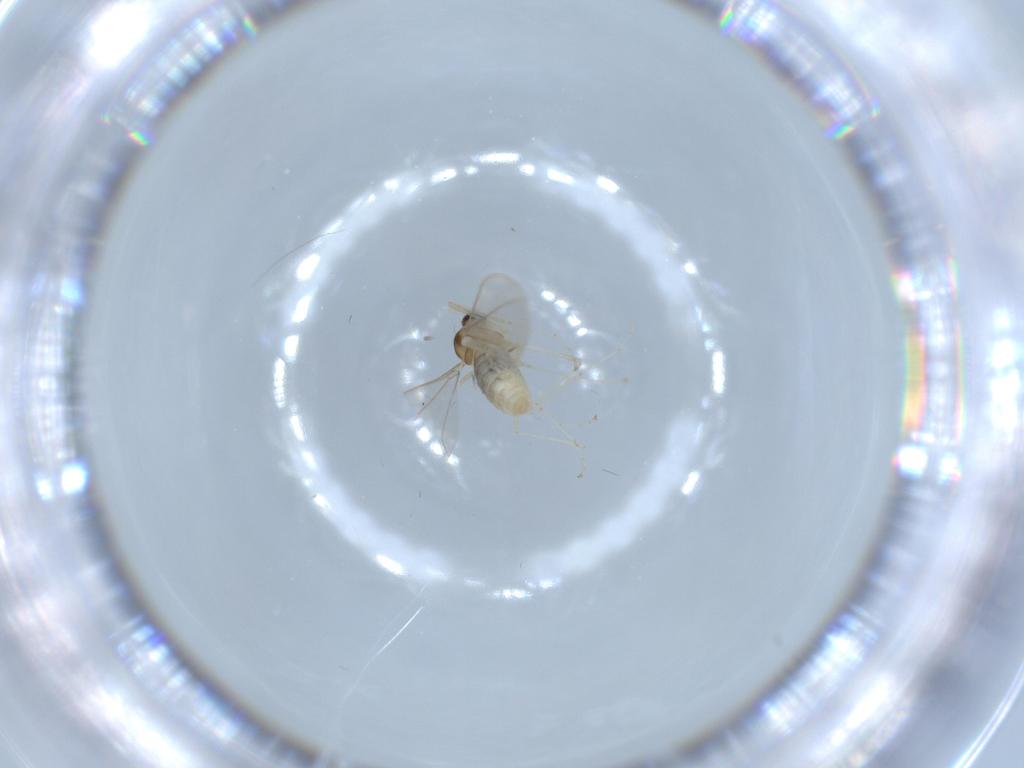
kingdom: Animalia
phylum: Arthropoda
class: Insecta
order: Diptera
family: Cecidomyiidae
